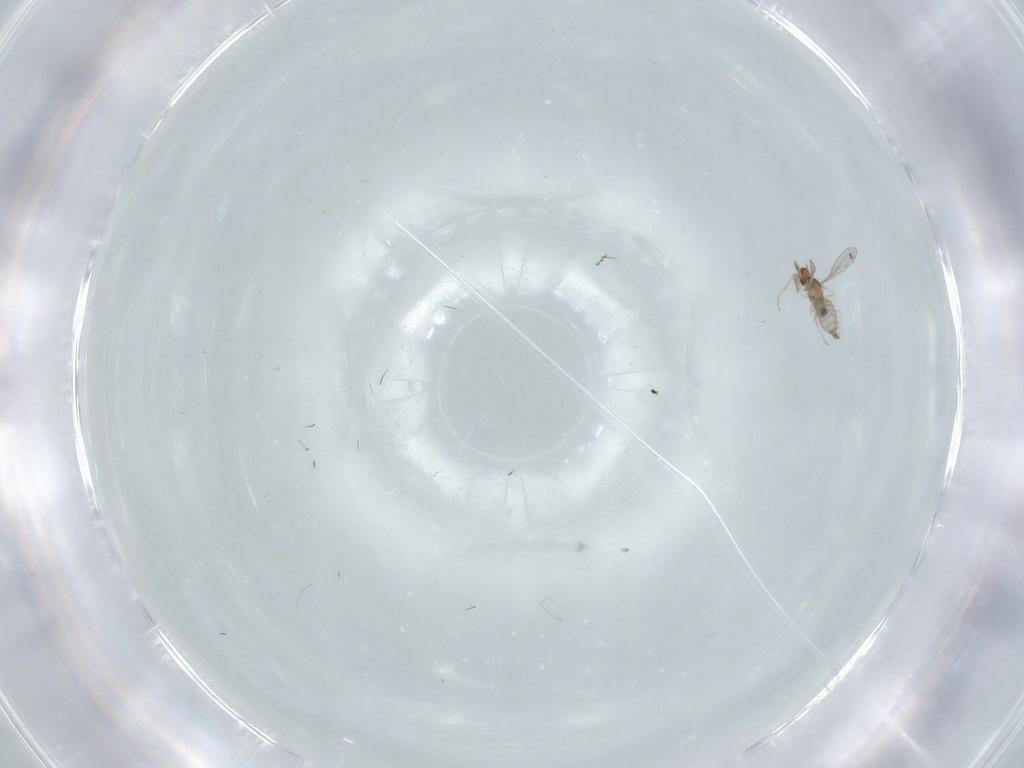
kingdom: Animalia
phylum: Arthropoda
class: Insecta
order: Diptera
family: Cecidomyiidae
